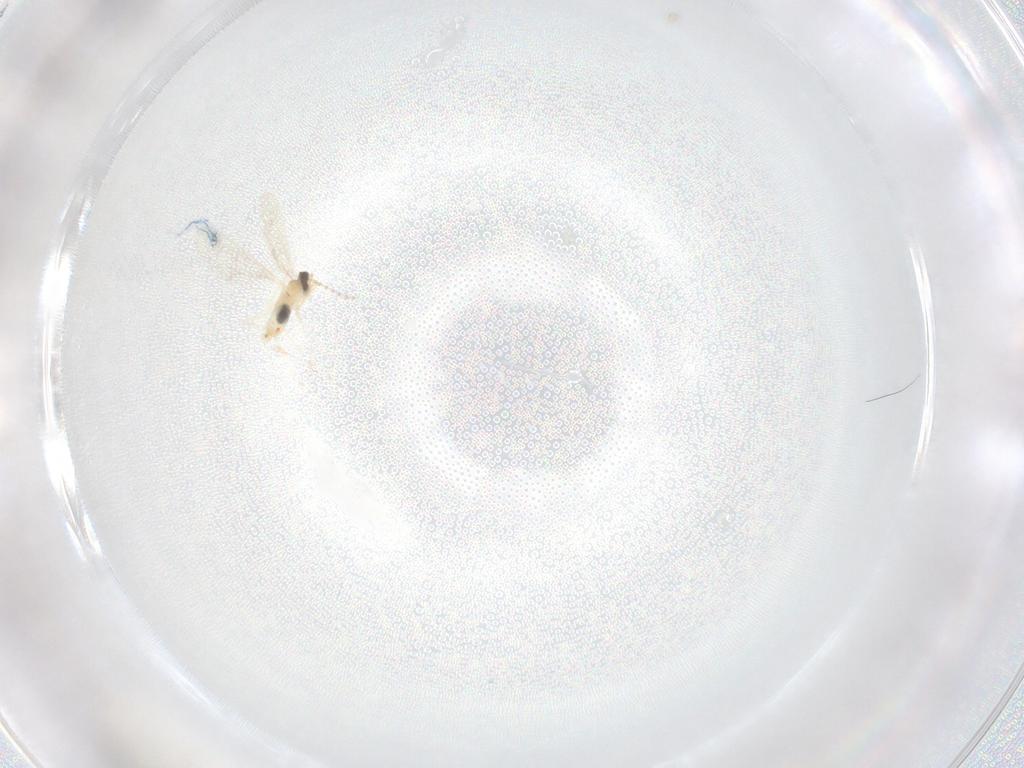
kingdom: Animalia
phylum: Arthropoda
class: Insecta
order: Diptera
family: Cecidomyiidae
